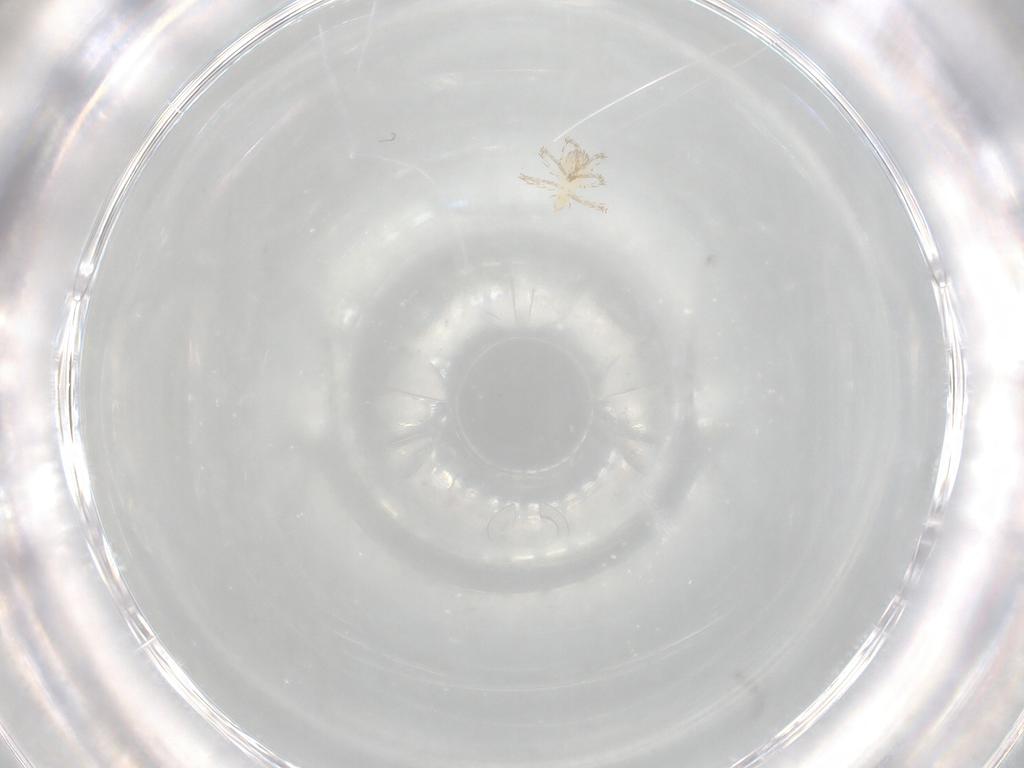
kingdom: Animalia
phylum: Arthropoda
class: Arachnida
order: Trombidiformes
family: Erythraeidae
